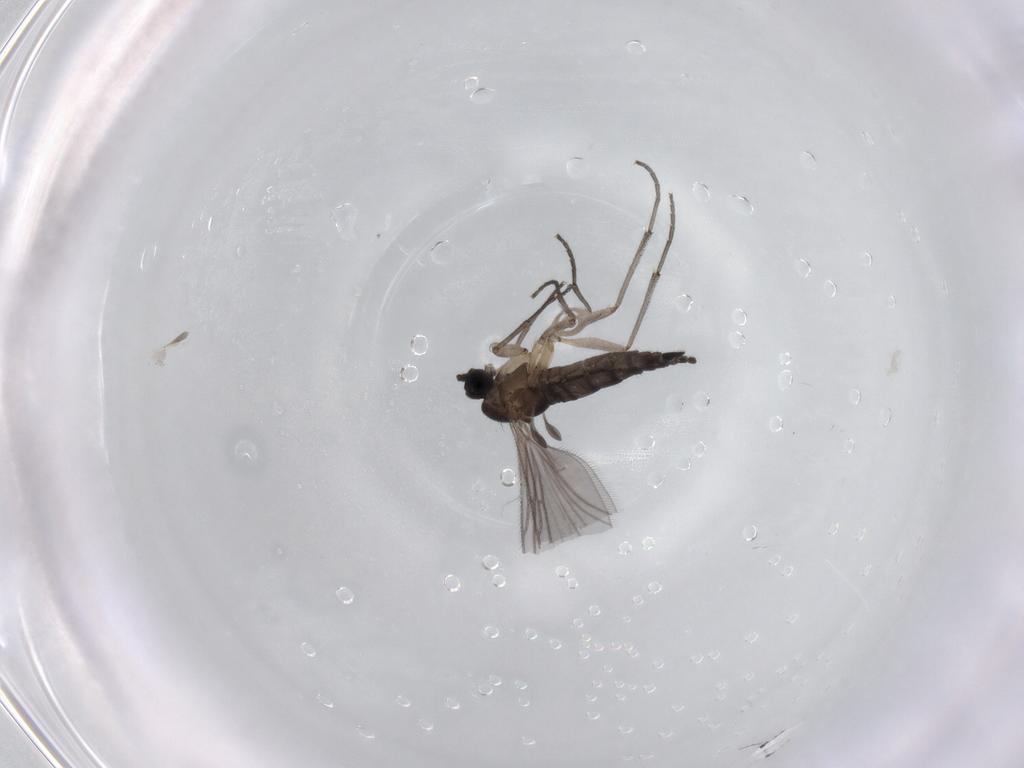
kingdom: Animalia
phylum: Arthropoda
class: Insecta
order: Diptera
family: Sciaridae
